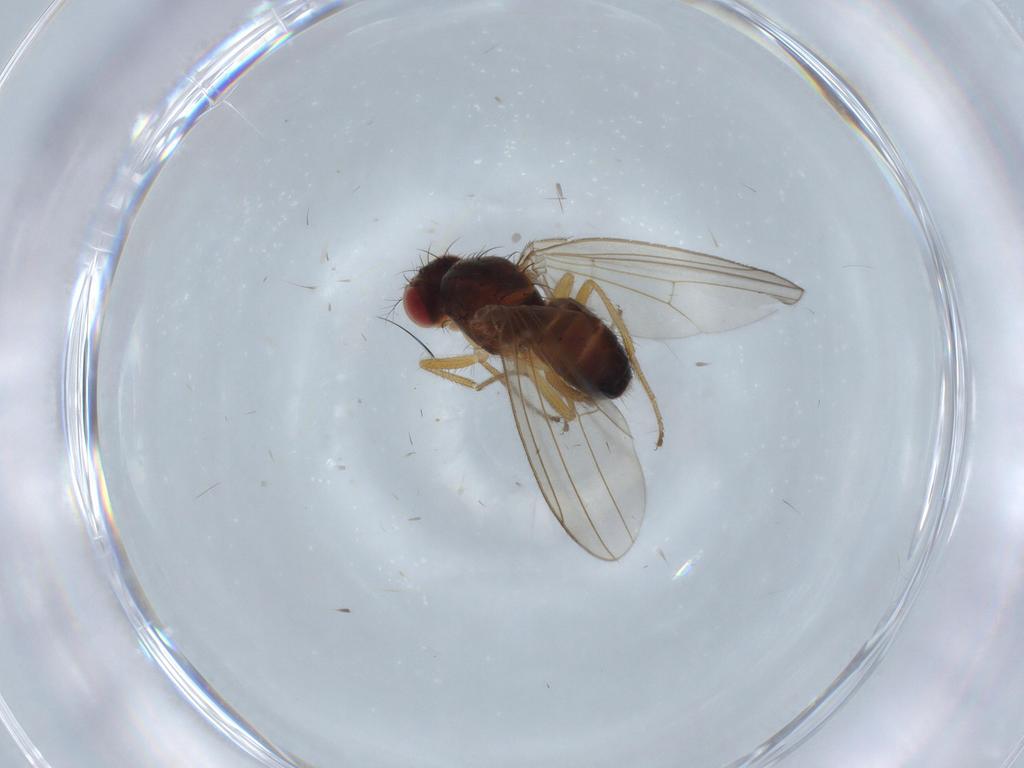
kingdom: Animalia
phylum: Arthropoda
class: Insecta
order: Diptera
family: Drosophilidae
